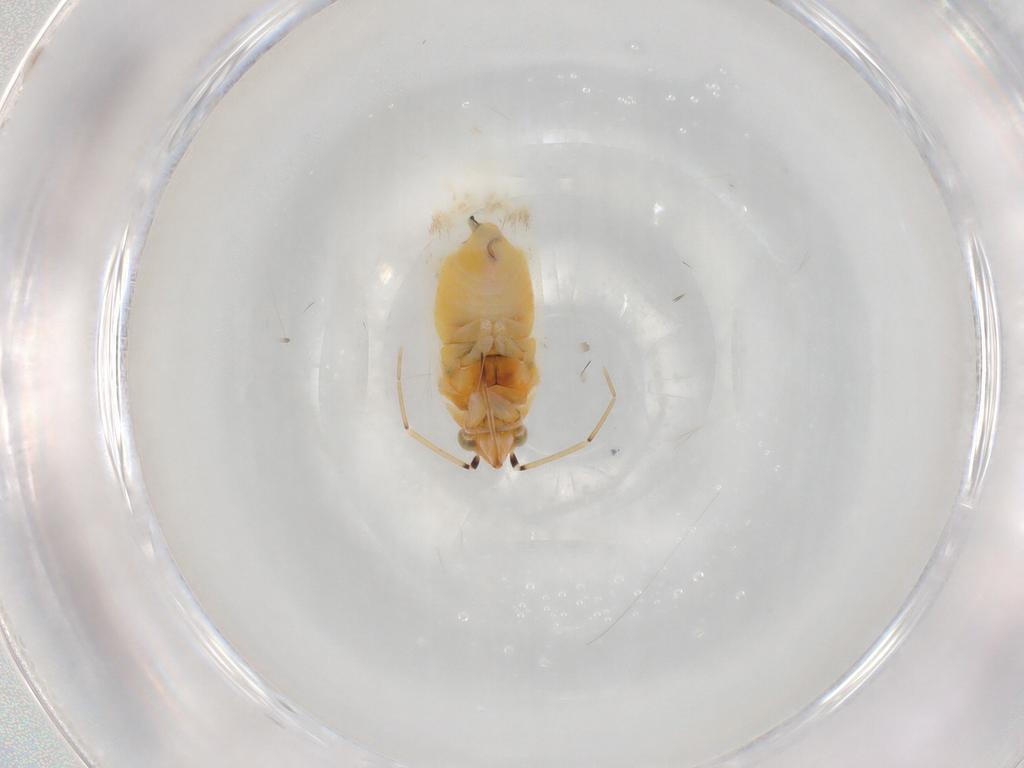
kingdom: Animalia
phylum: Arthropoda
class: Insecta
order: Hemiptera
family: Miridae
